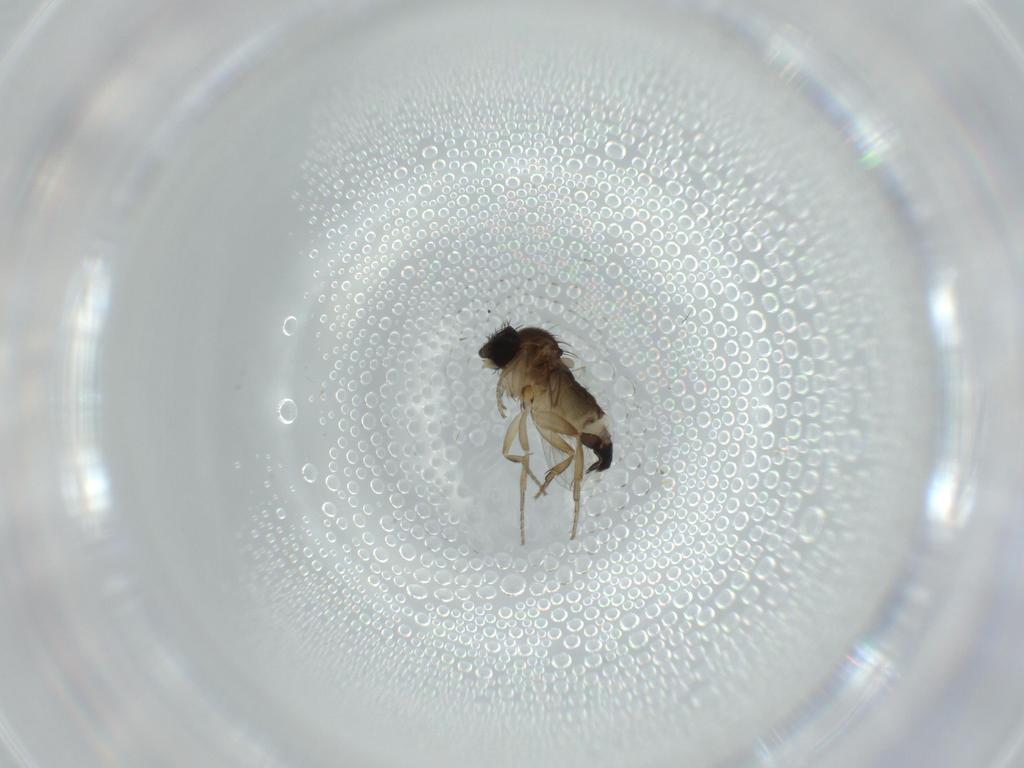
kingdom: Animalia
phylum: Arthropoda
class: Insecta
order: Diptera
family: Phoridae
